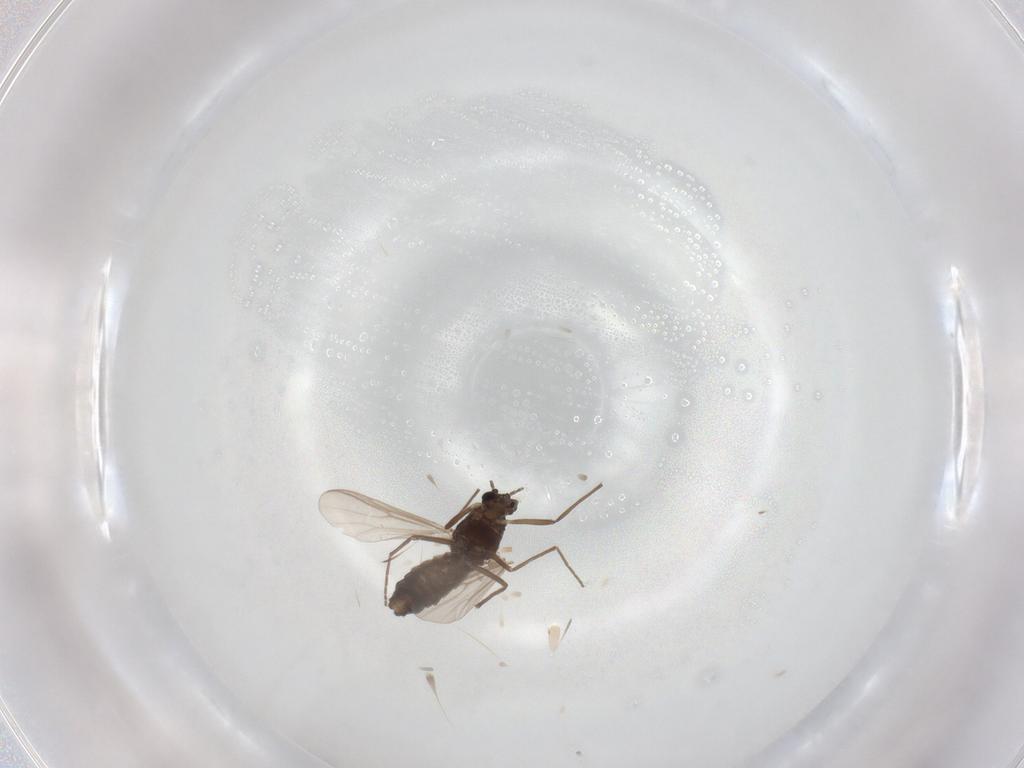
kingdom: Animalia
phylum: Arthropoda
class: Insecta
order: Diptera
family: Chironomidae
